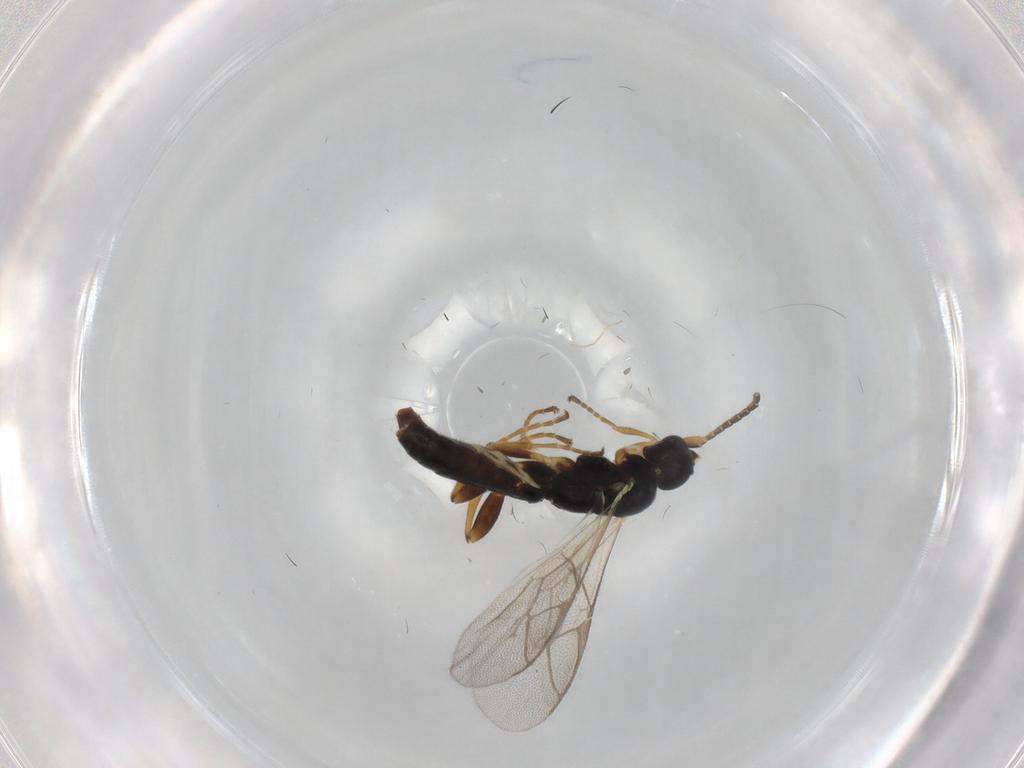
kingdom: Animalia
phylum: Arthropoda
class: Insecta
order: Hymenoptera
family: Ichneumonidae
